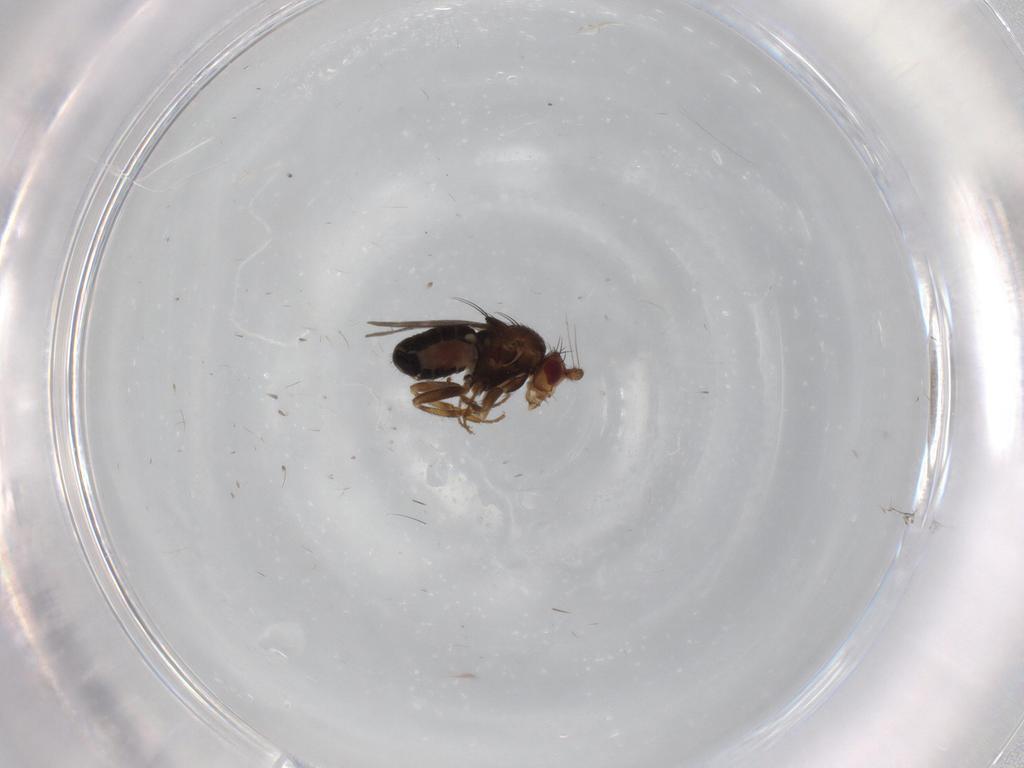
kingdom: Animalia
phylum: Arthropoda
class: Insecta
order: Diptera
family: Sphaeroceridae
